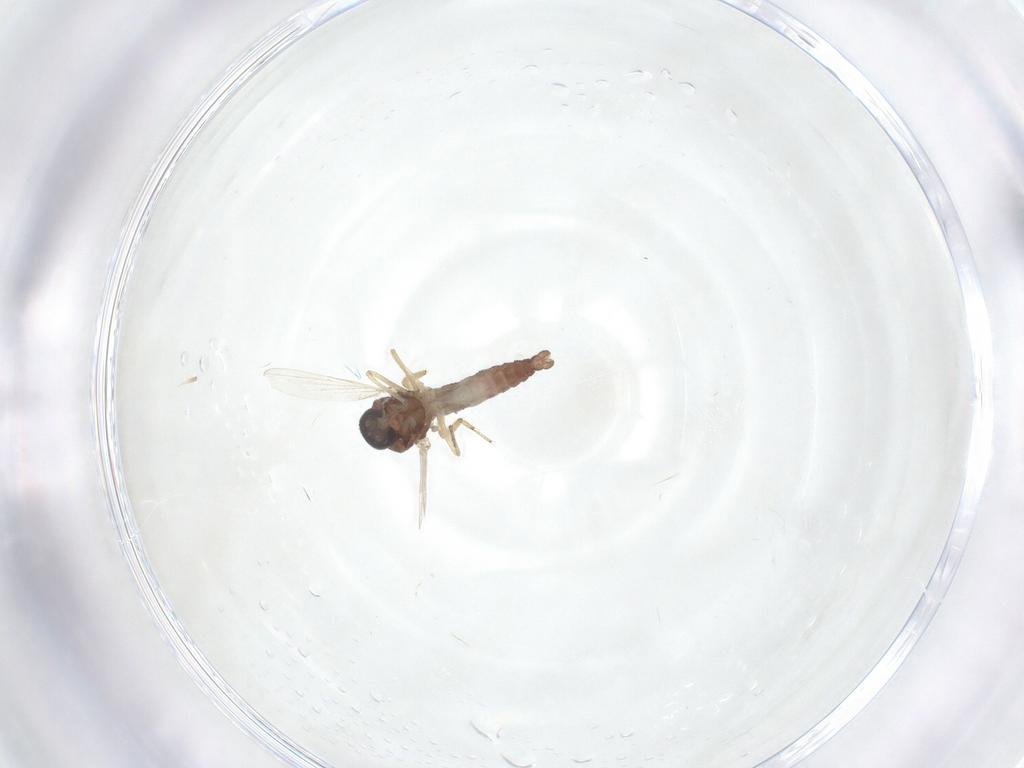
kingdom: Animalia
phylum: Arthropoda
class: Insecta
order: Diptera
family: Ceratopogonidae
